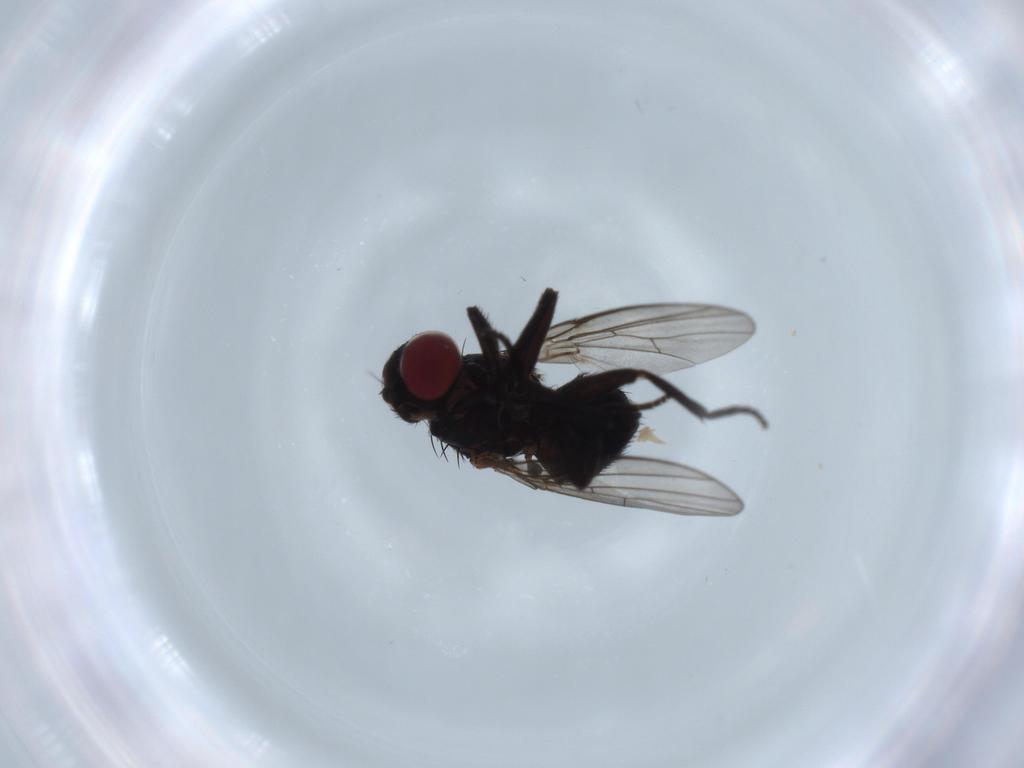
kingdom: Animalia
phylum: Arthropoda
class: Insecta
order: Diptera
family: Agromyzidae
